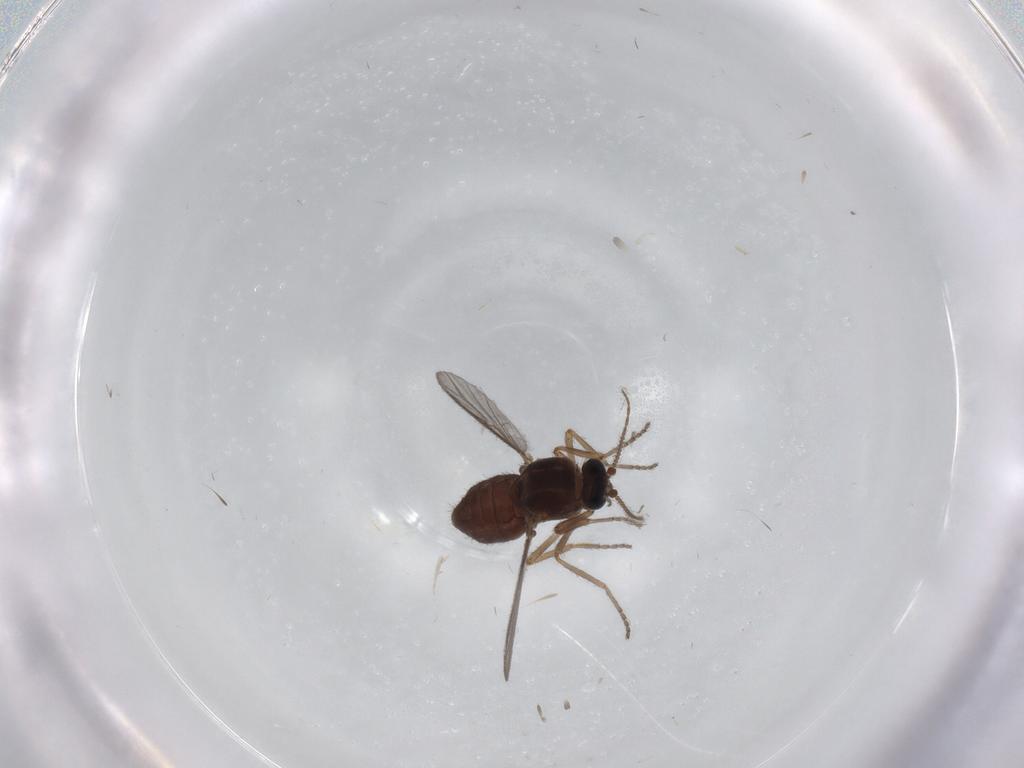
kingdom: Animalia
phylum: Arthropoda
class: Insecta
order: Diptera
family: Ceratopogonidae
